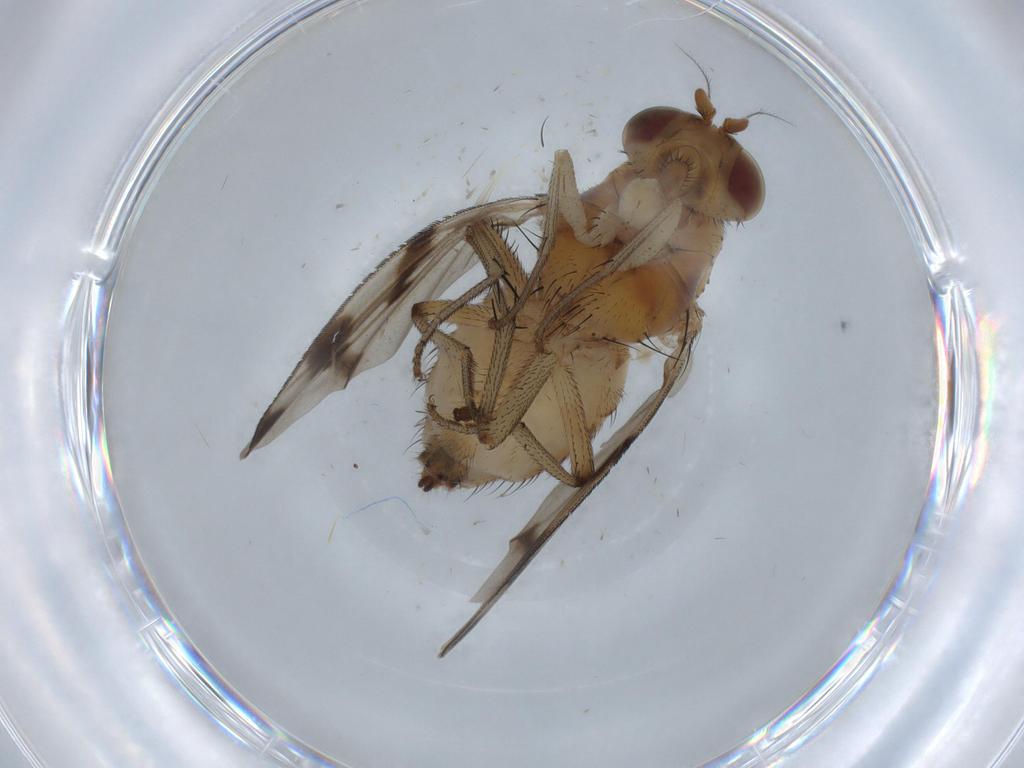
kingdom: Animalia
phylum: Arthropoda
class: Insecta
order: Diptera
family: Lauxaniidae
